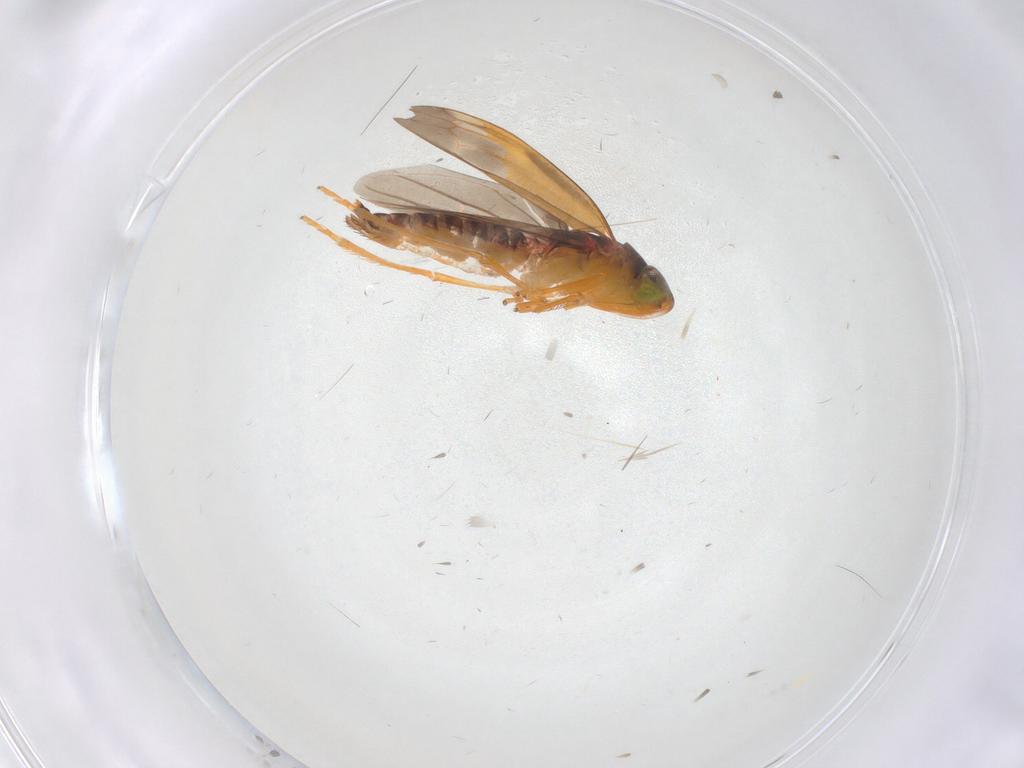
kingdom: Animalia
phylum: Arthropoda
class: Insecta
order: Hemiptera
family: Cicadellidae
